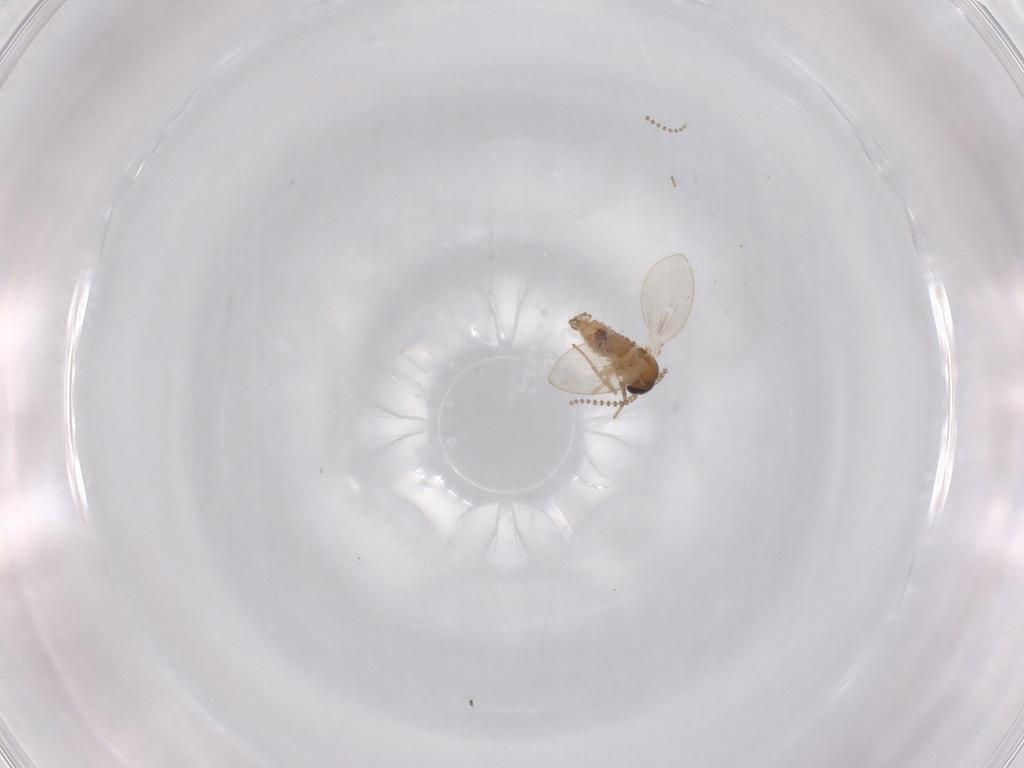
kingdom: Animalia
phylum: Arthropoda
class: Insecta
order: Diptera
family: Psychodidae
